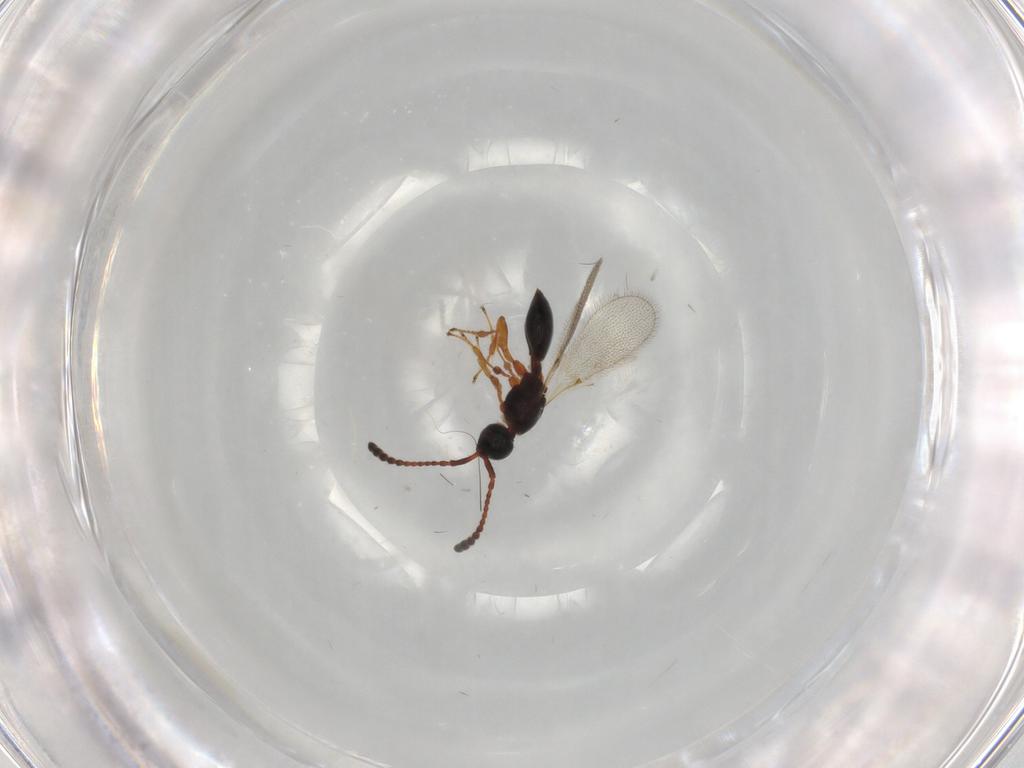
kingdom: Animalia
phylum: Arthropoda
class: Insecta
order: Hymenoptera
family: Diapriidae
